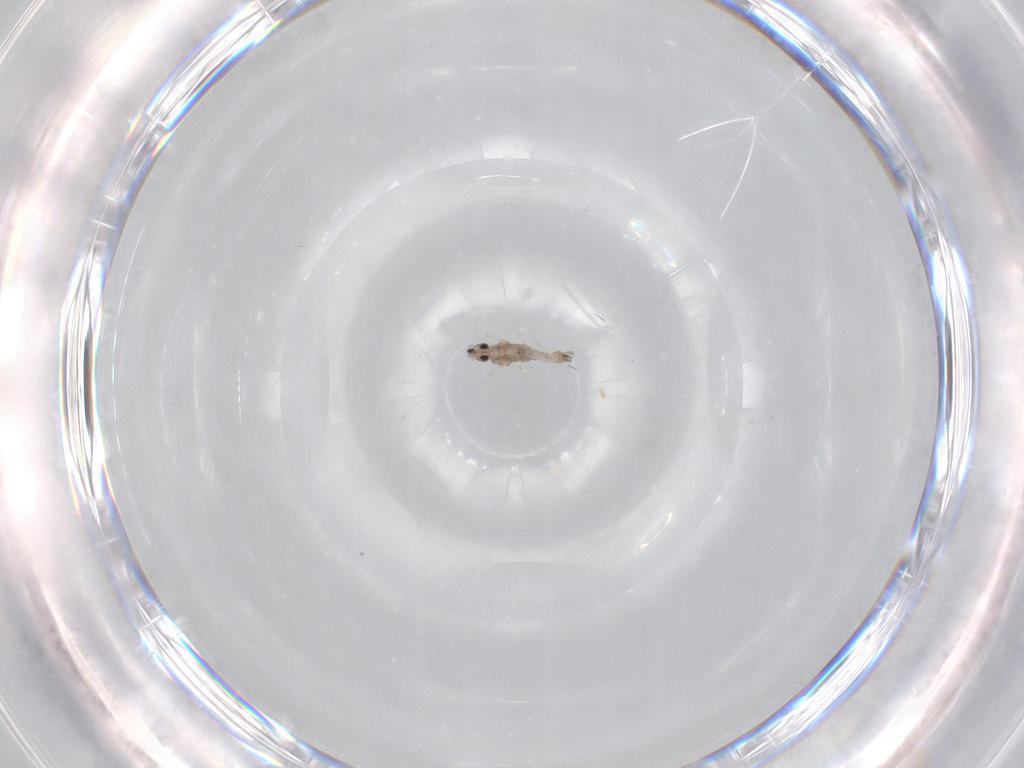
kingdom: Animalia
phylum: Arthropoda
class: Insecta
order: Diptera
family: Cecidomyiidae
